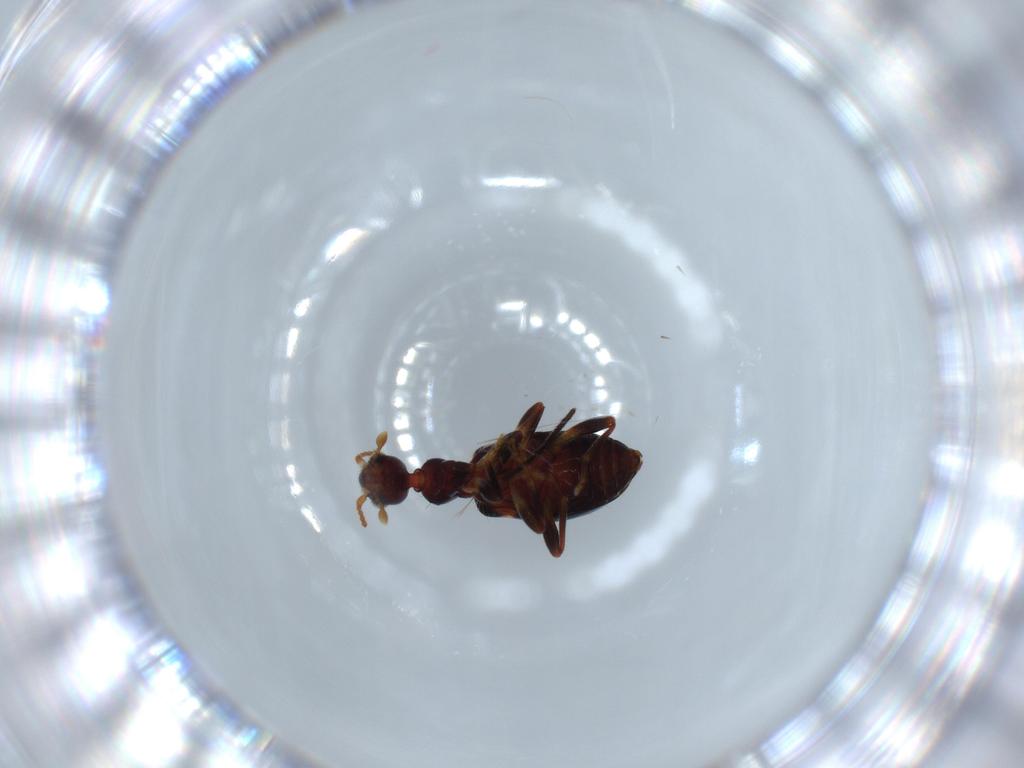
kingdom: Animalia
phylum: Arthropoda
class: Insecta
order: Coleoptera
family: Anthicidae
